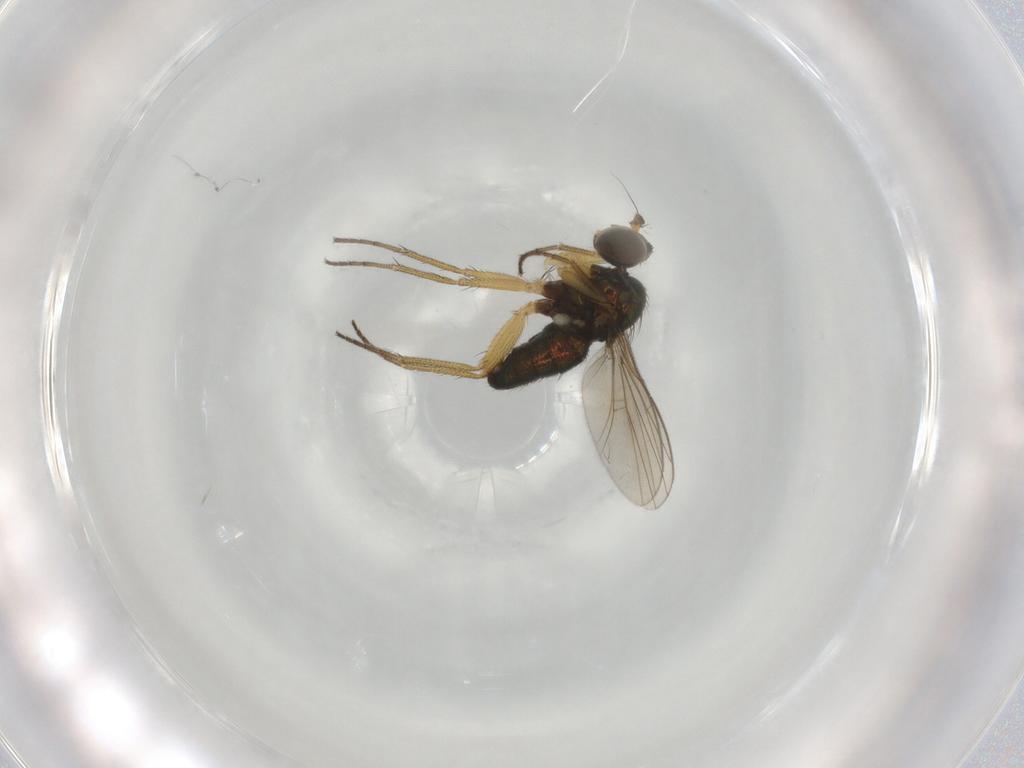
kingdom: Animalia
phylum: Arthropoda
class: Insecta
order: Diptera
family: Dolichopodidae
